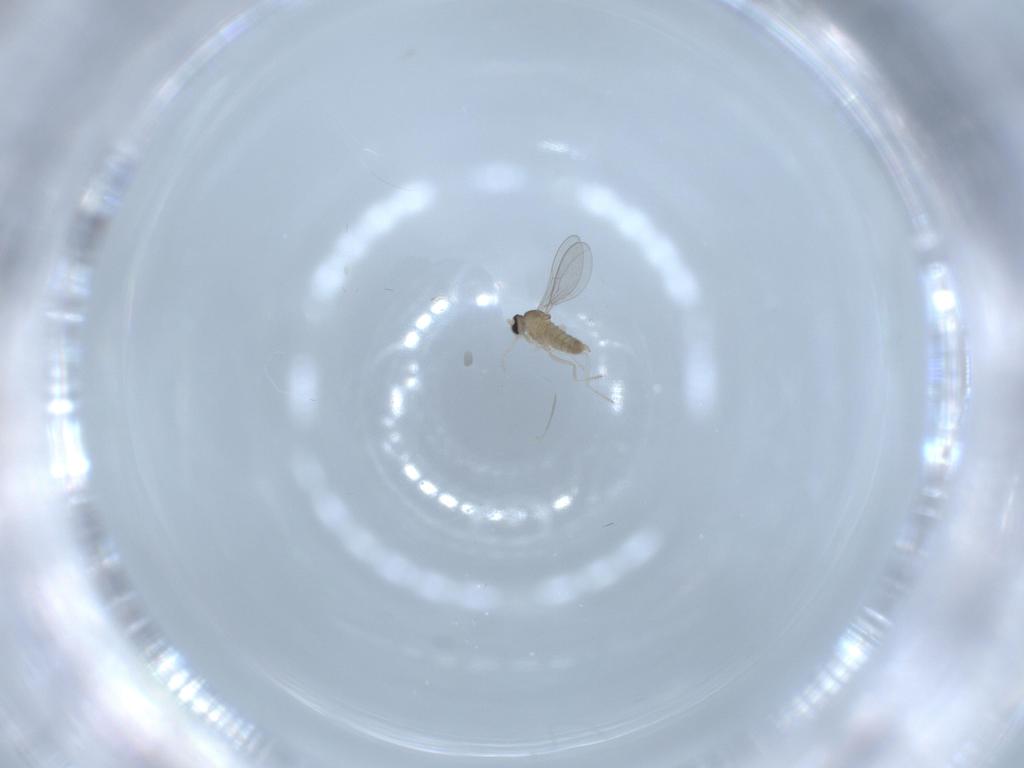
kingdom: Animalia
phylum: Arthropoda
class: Insecta
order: Diptera
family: Cecidomyiidae
